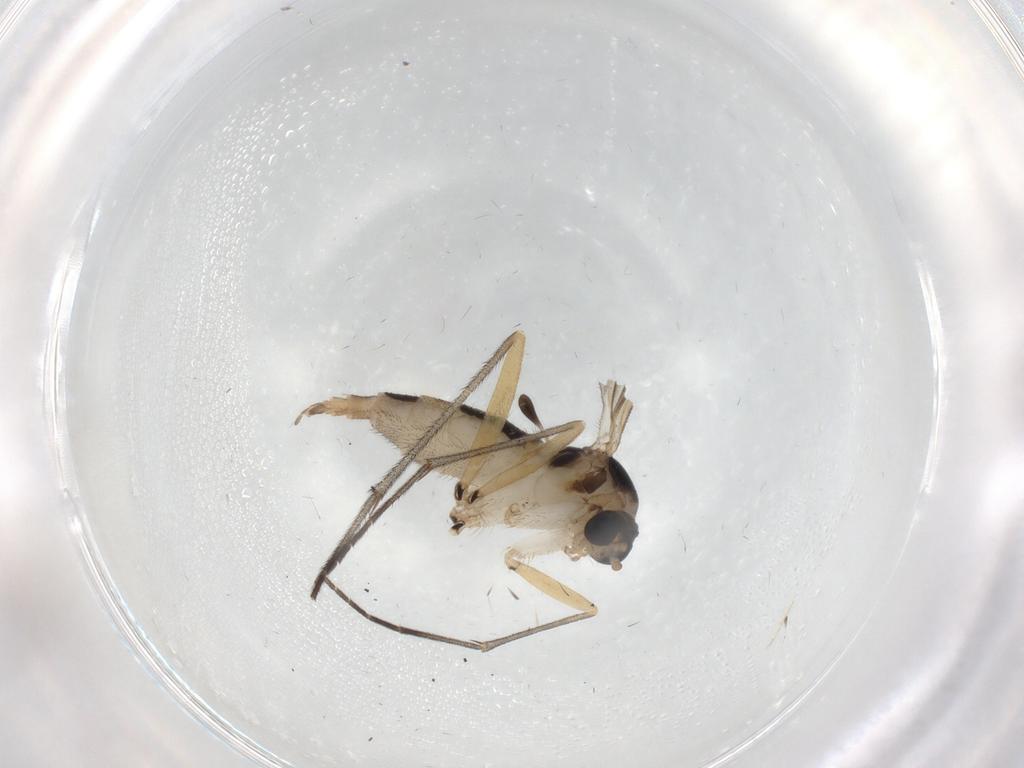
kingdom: Animalia
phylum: Arthropoda
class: Insecta
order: Diptera
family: Sciaridae
